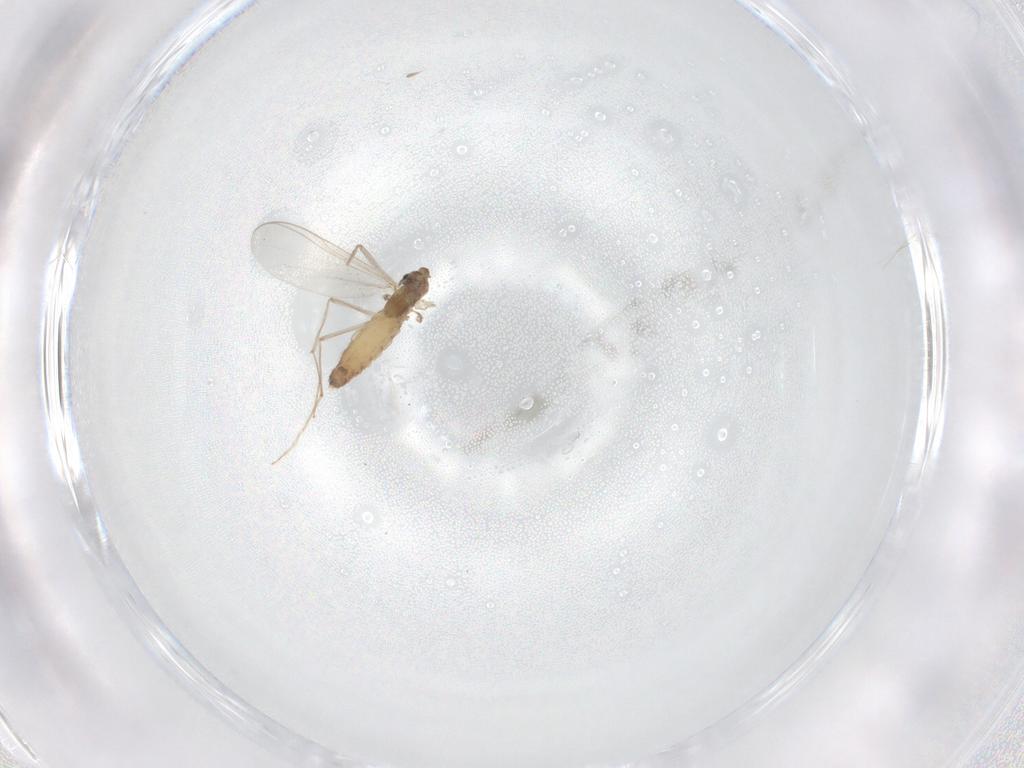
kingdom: Animalia
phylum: Arthropoda
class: Insecta
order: Diptera
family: Chironomidae
